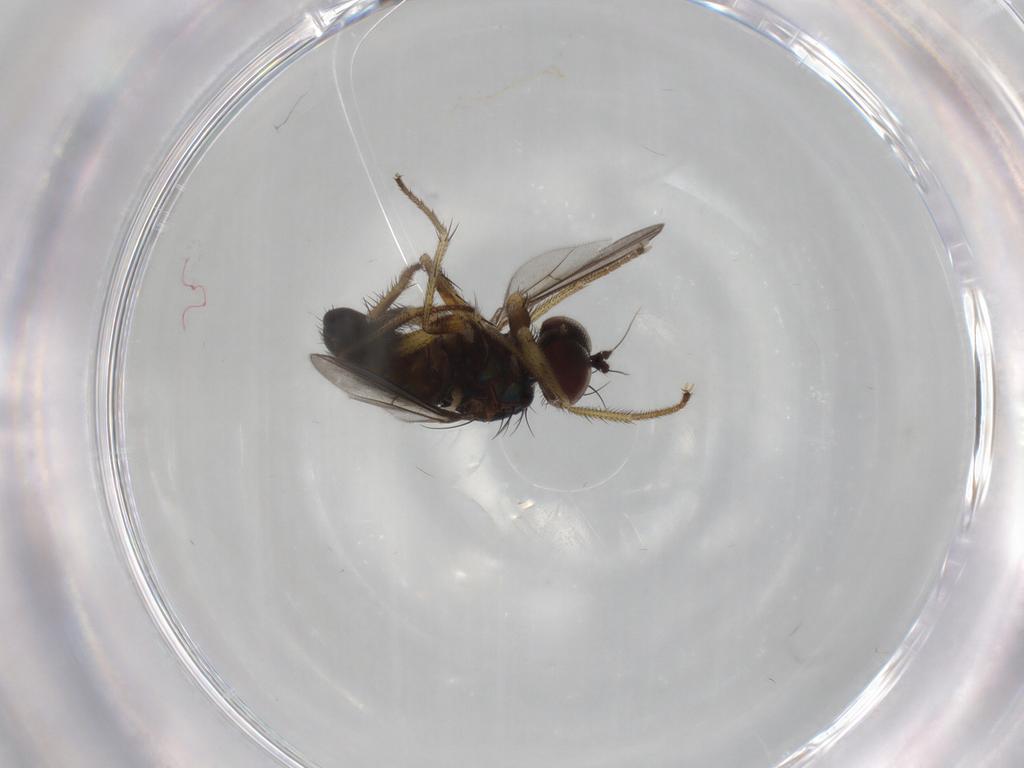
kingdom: Animalia
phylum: Arthropoda
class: Insecta
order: Diptera
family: Dolichopodidae
